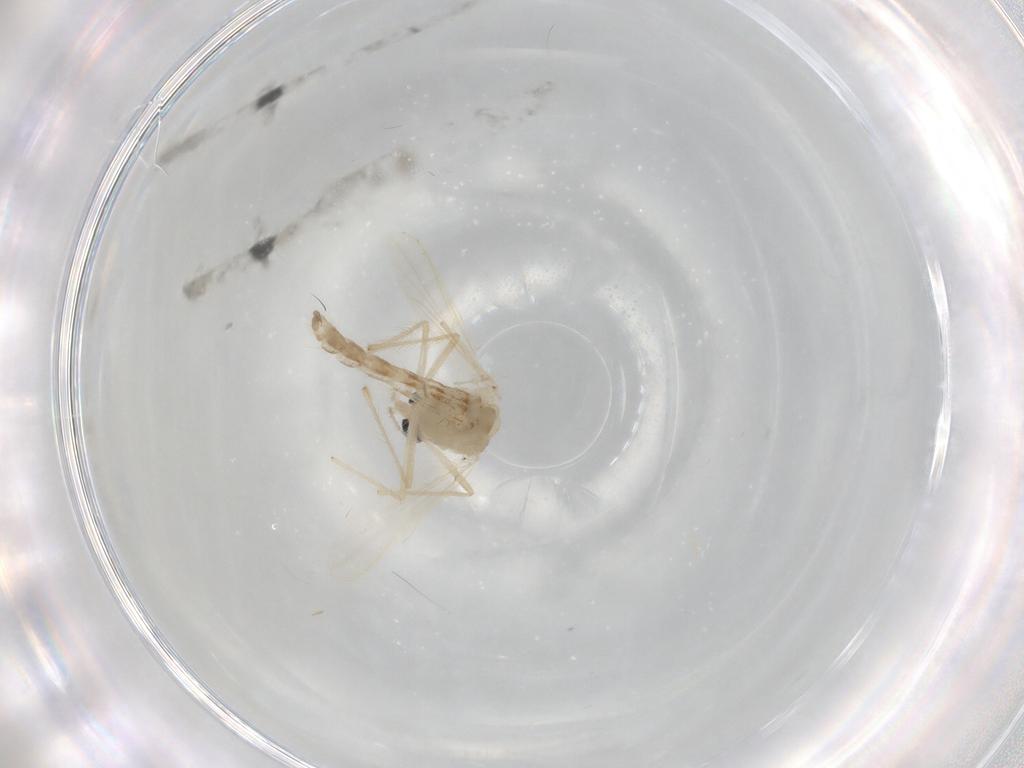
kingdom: Animalia
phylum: Arthropoda
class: Insecta
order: Diptera
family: Chironomidae
